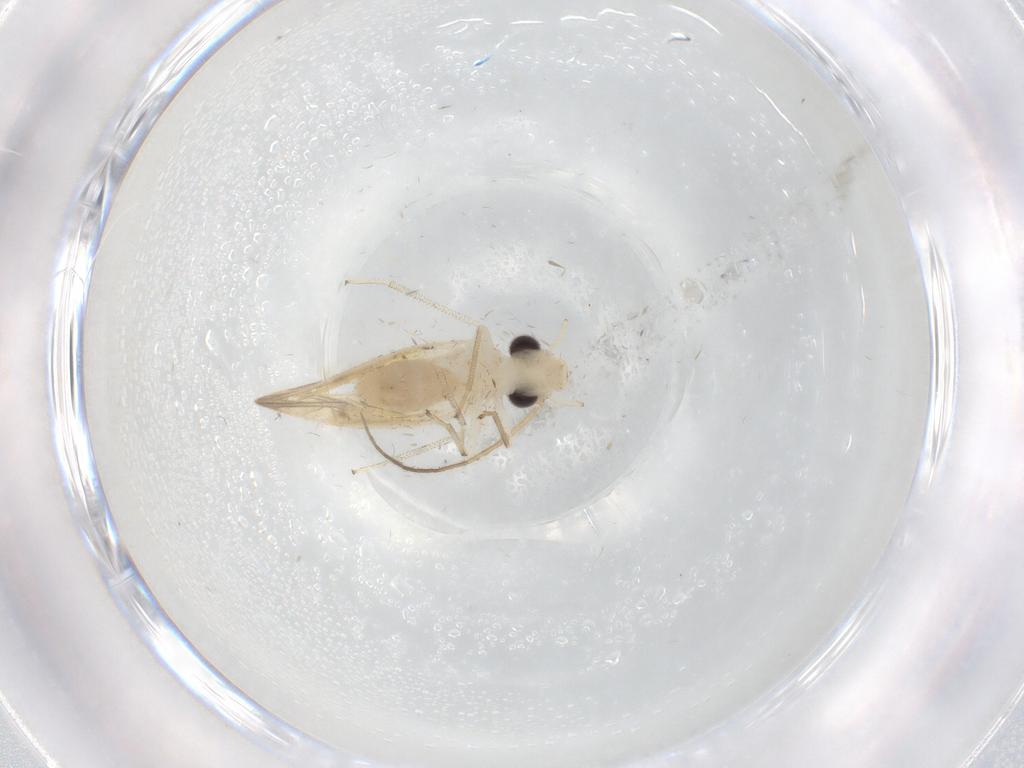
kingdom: Animalia
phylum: Arthropoda
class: Insecta
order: Psocodea
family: Caeciliusidae
